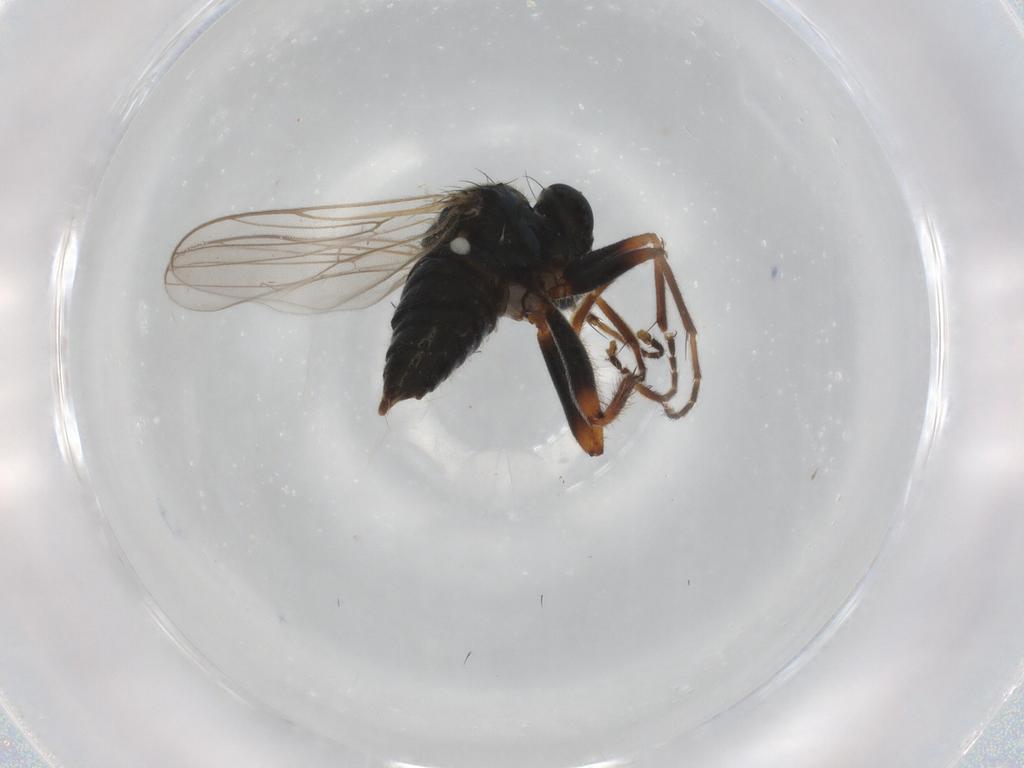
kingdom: Animalia
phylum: Arthropoda
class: Insecta
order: Diptera
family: Hybotidae
